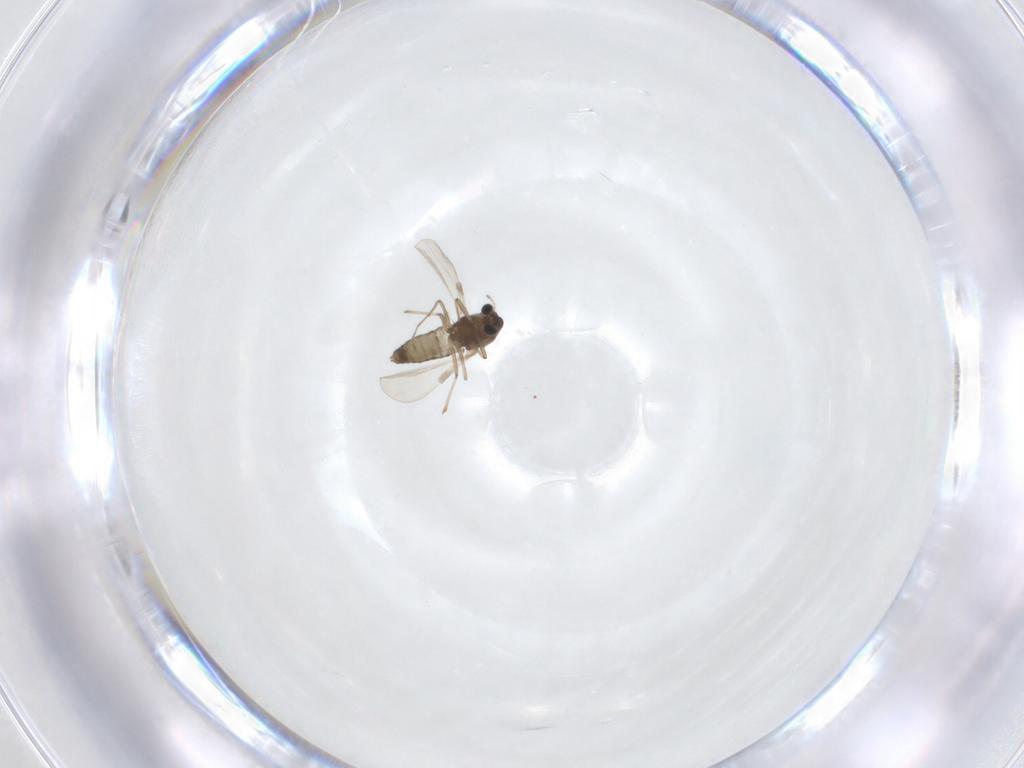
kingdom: Animalia
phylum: Arthropoda
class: Insecta
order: Diptera
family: Chironomidae
